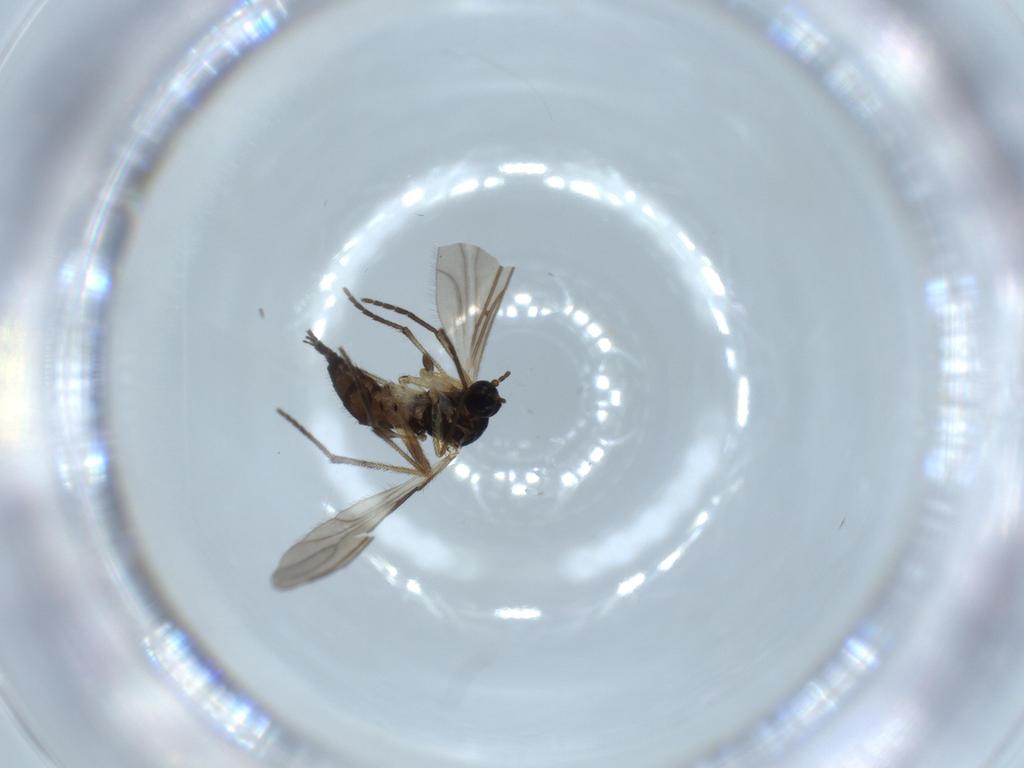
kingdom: Animalia
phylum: Arthropoda
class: Insecta
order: Diptera
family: Sciaridae
